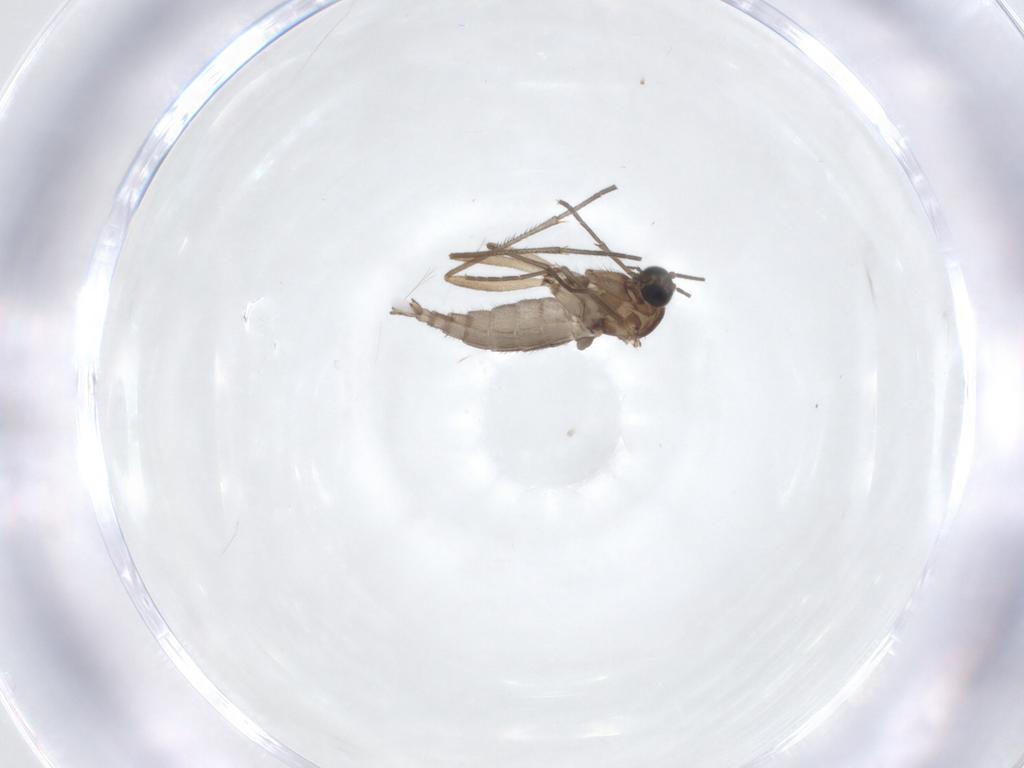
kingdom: Animalia
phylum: Arthropoda
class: Insecta
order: Diptera
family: Sciaridae
